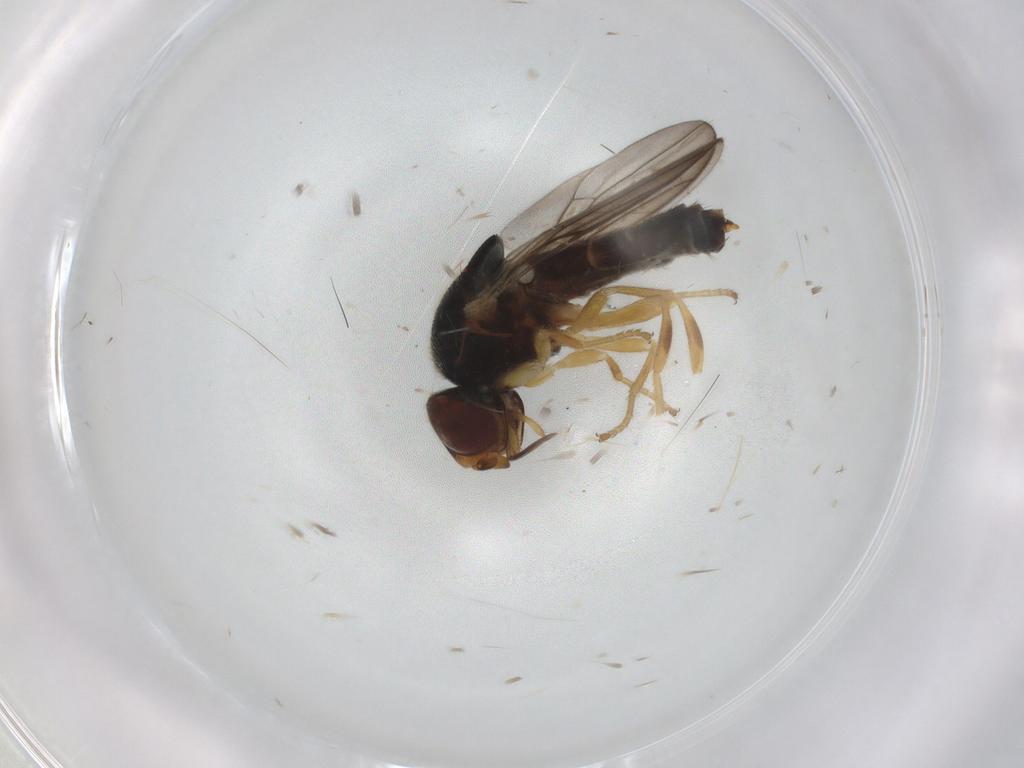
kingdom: Animalia
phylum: Arthropoda
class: Insecta
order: Diptera
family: Chloropidae
